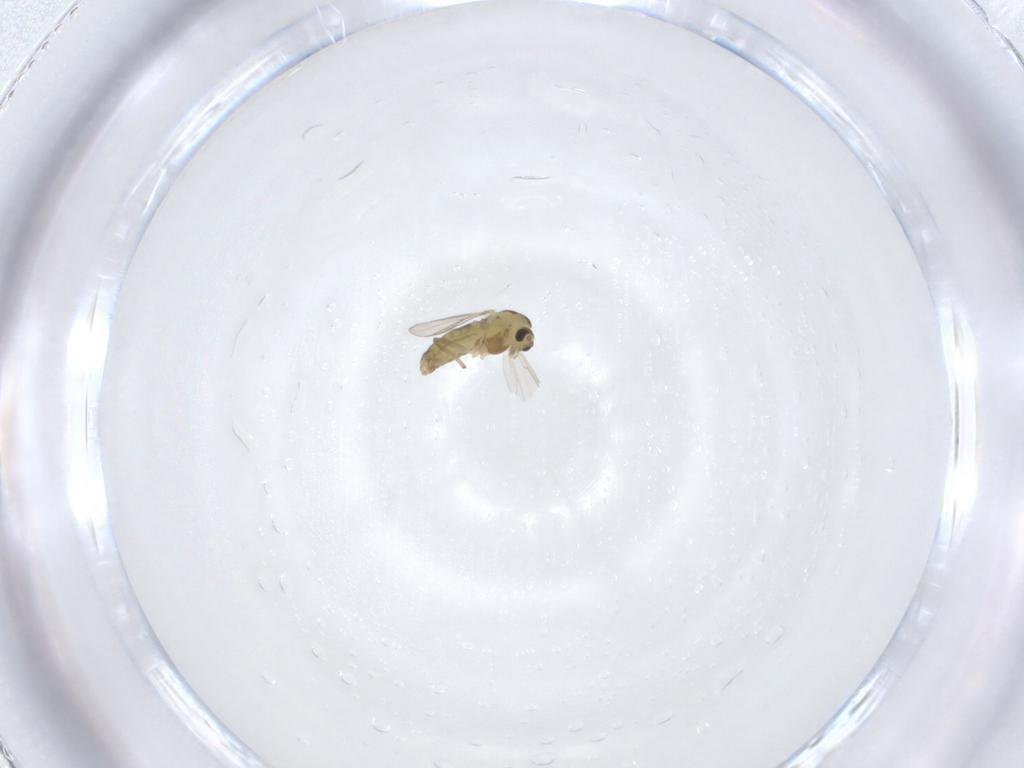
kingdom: Animalia
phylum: Arthropoda
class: Insecta
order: Diptera
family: Chironomidae
